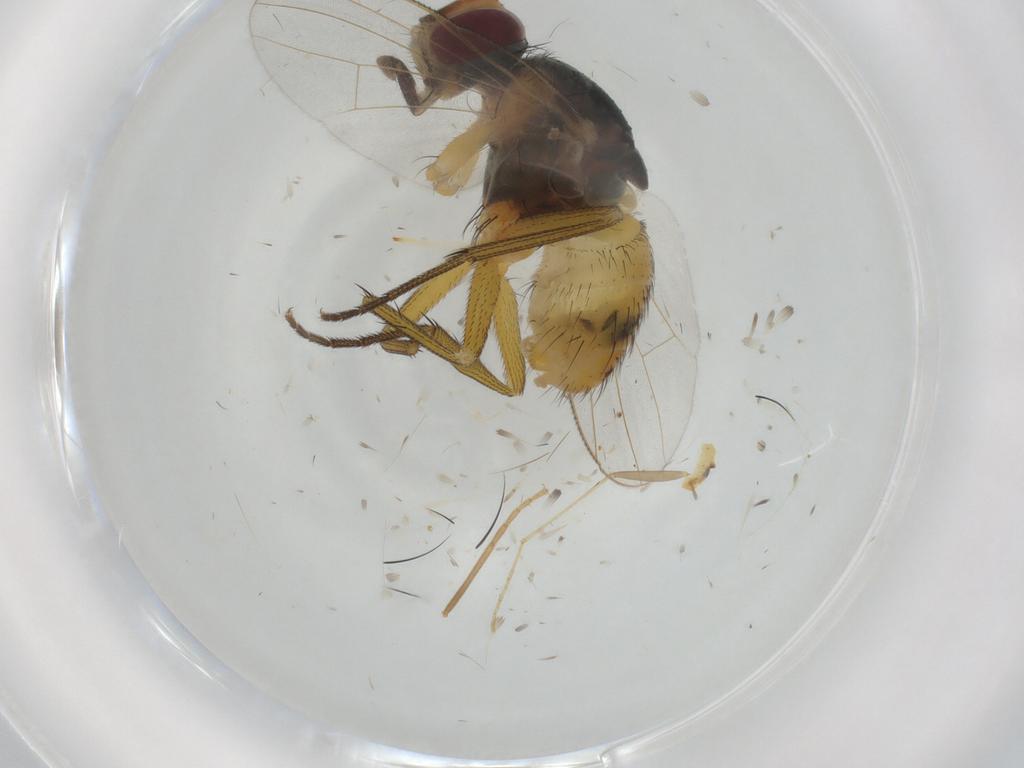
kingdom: Animalia
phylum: Arthropoda
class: Insecta
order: Diptera
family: Muscidae
